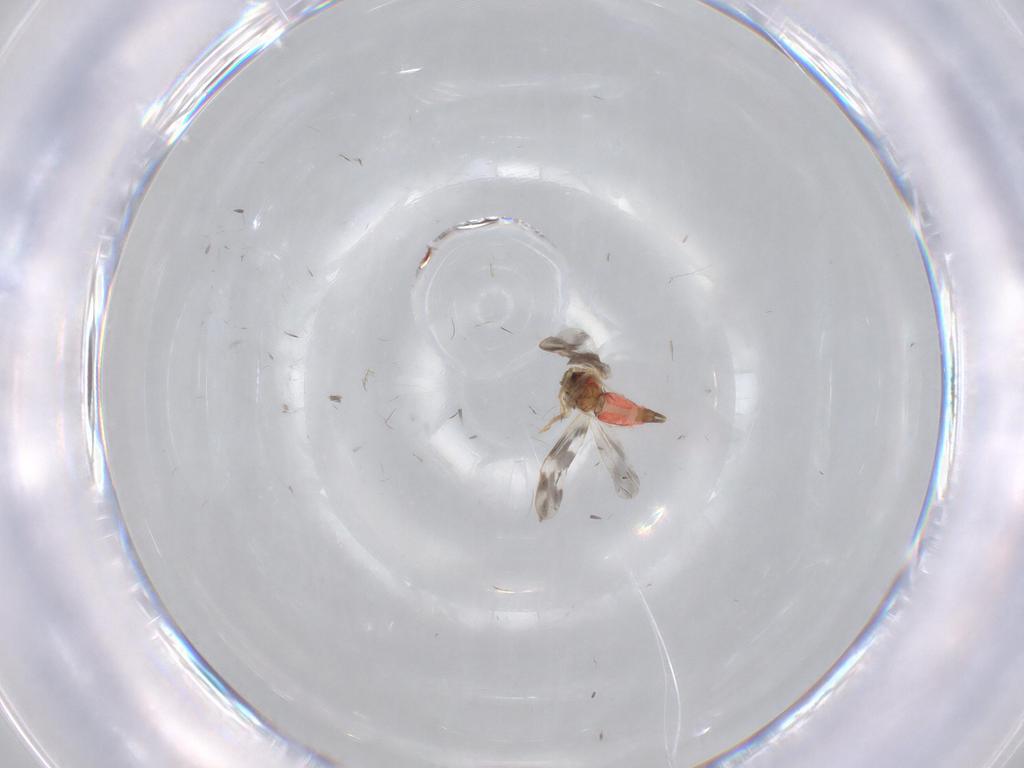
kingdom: Animalia
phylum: Arthropoda
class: Insecta
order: Hemiptera
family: Aleyrodidae
